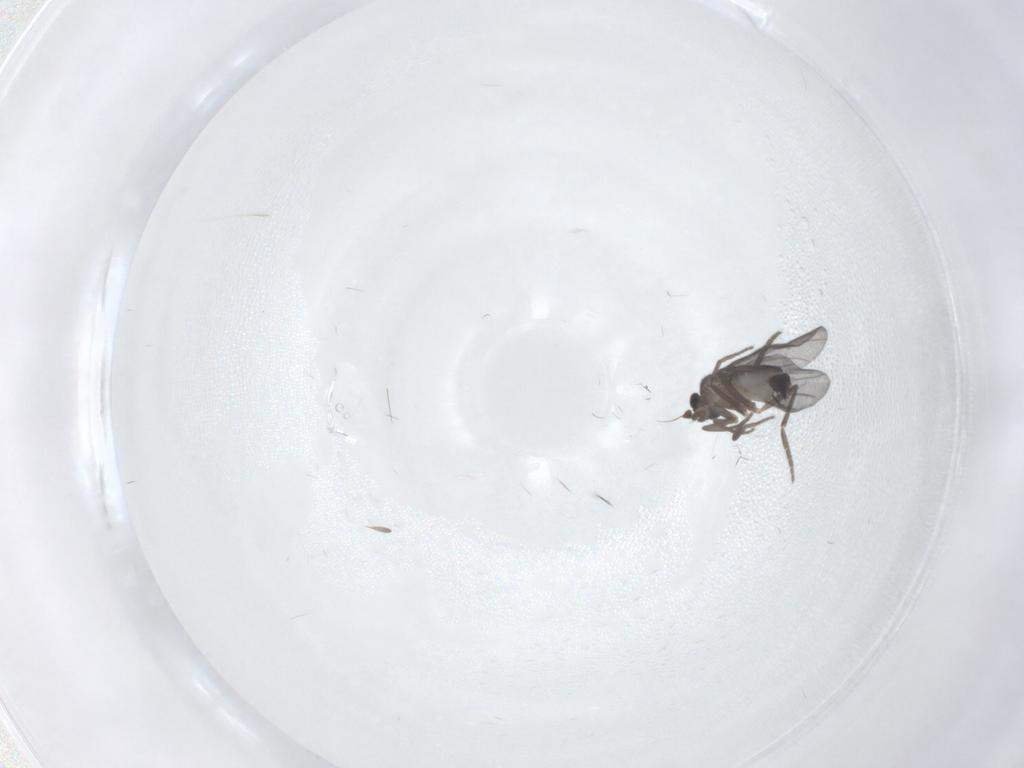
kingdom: Animalia
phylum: Arthropoda
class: Insecta
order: Diptera
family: Phoridae
